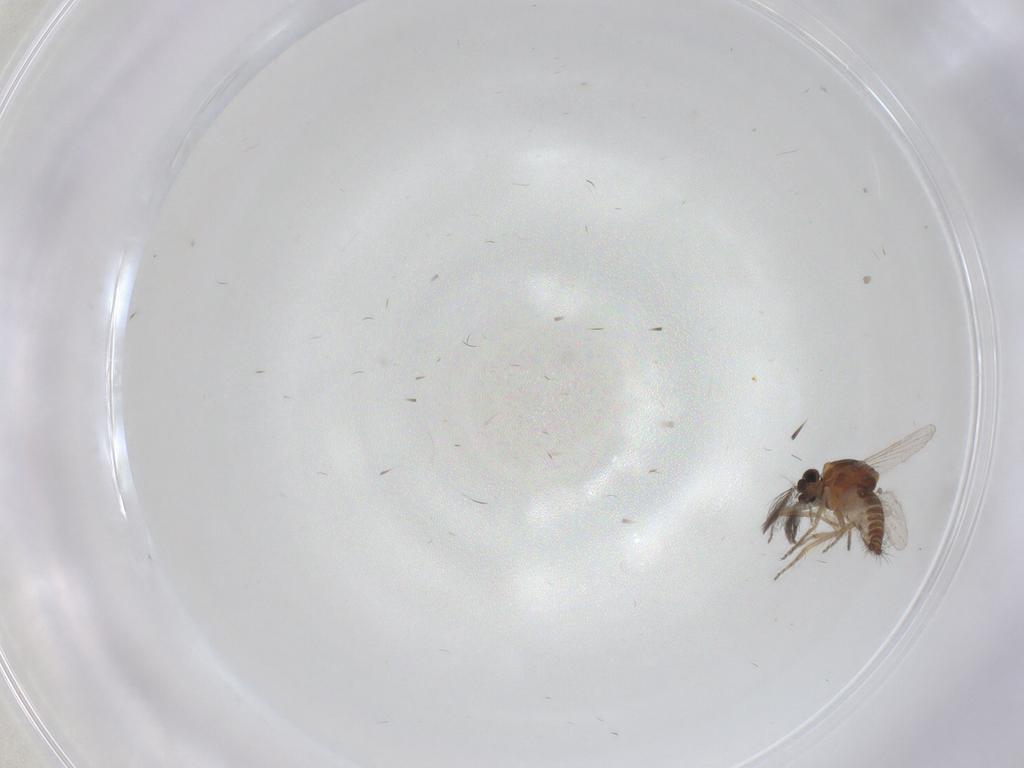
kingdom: Animalia
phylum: Arthropoda
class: Insecta
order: Diptera
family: Ceratopogonidae
